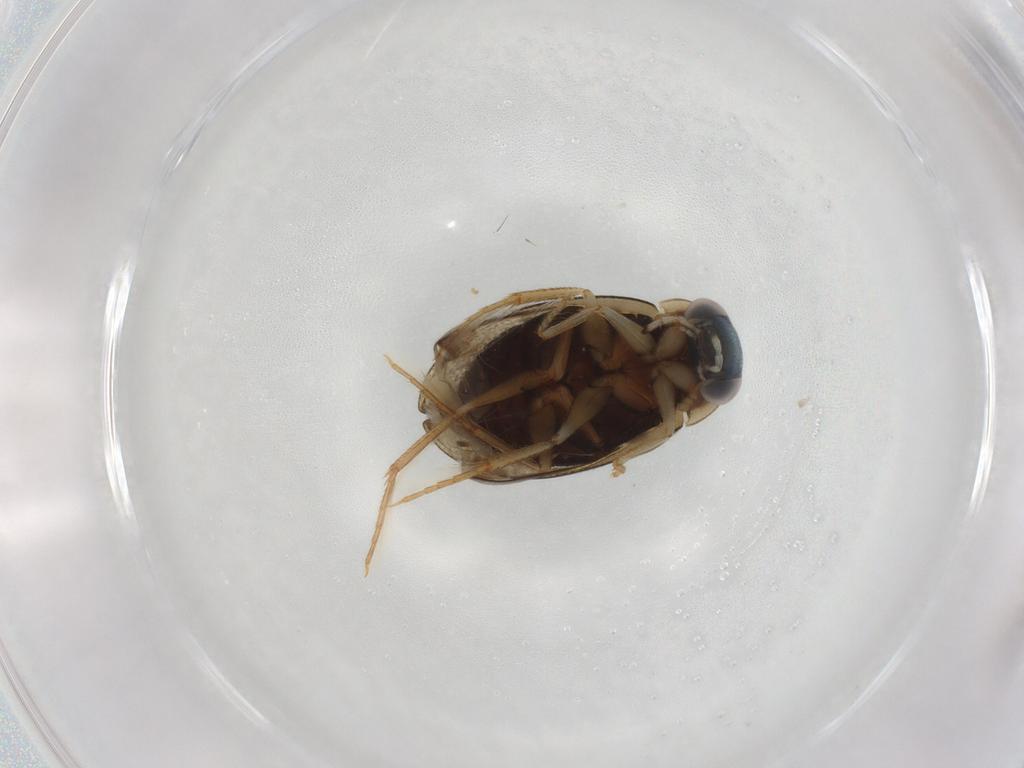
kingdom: Animalia
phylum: Arthropoda
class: Insecta
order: Coleoptera
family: Hydrophilidae
